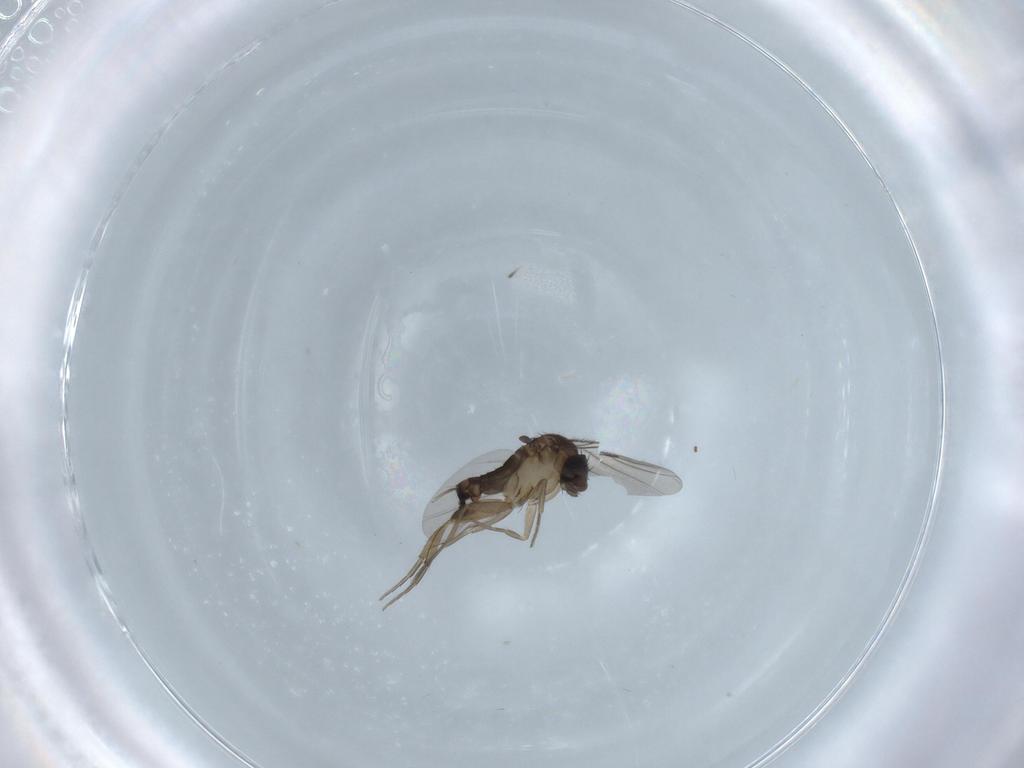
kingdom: Animalia
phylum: Arthropoda
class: Insecta
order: Diptera
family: Phoridae
